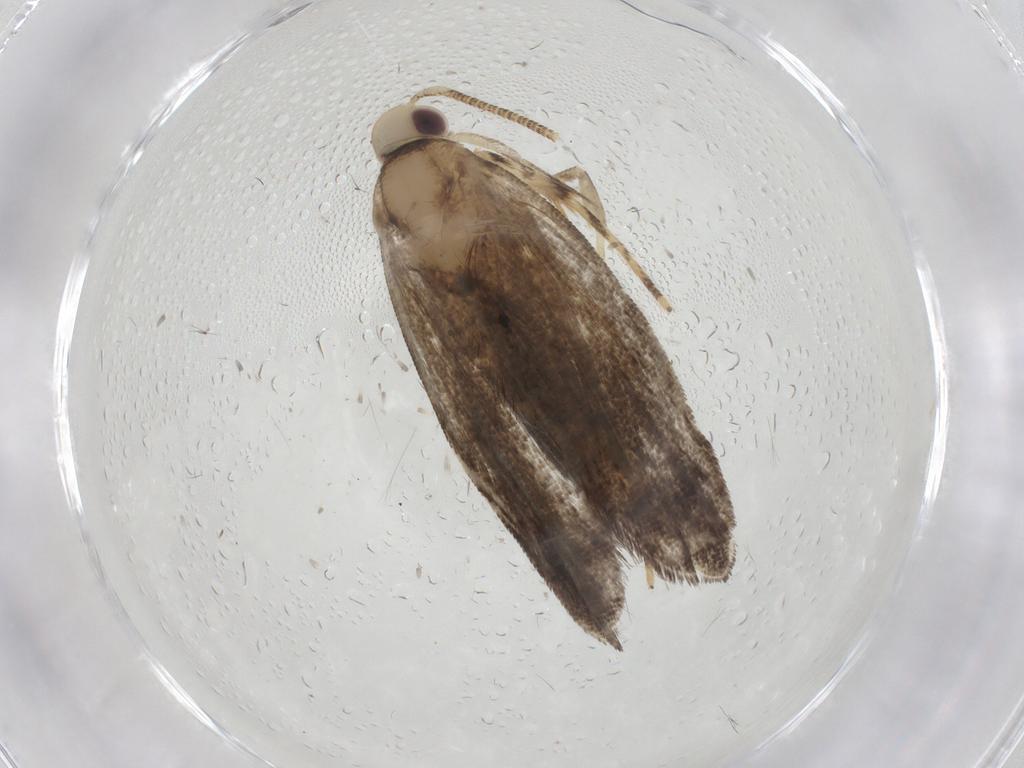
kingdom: Animalia
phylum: Arthropoda
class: Insecta
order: Lepidoptera
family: Gelechiidae
